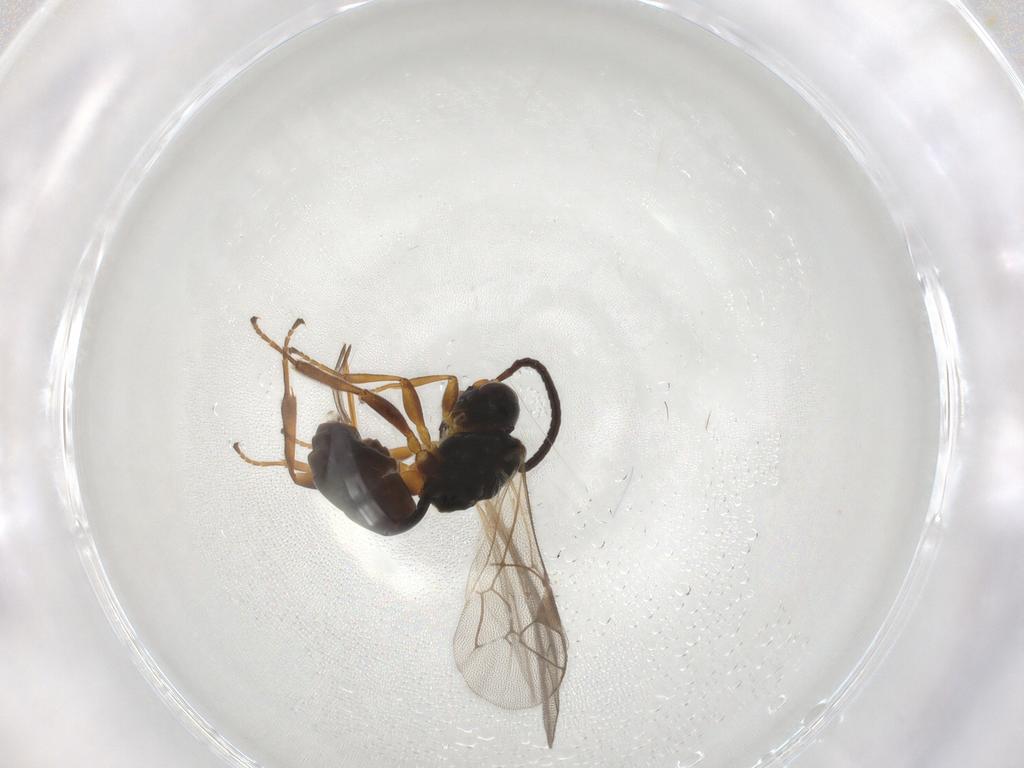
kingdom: Animalia
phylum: Arthropoda
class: Insecta
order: Hymenoptera
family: Ichneumonidae
